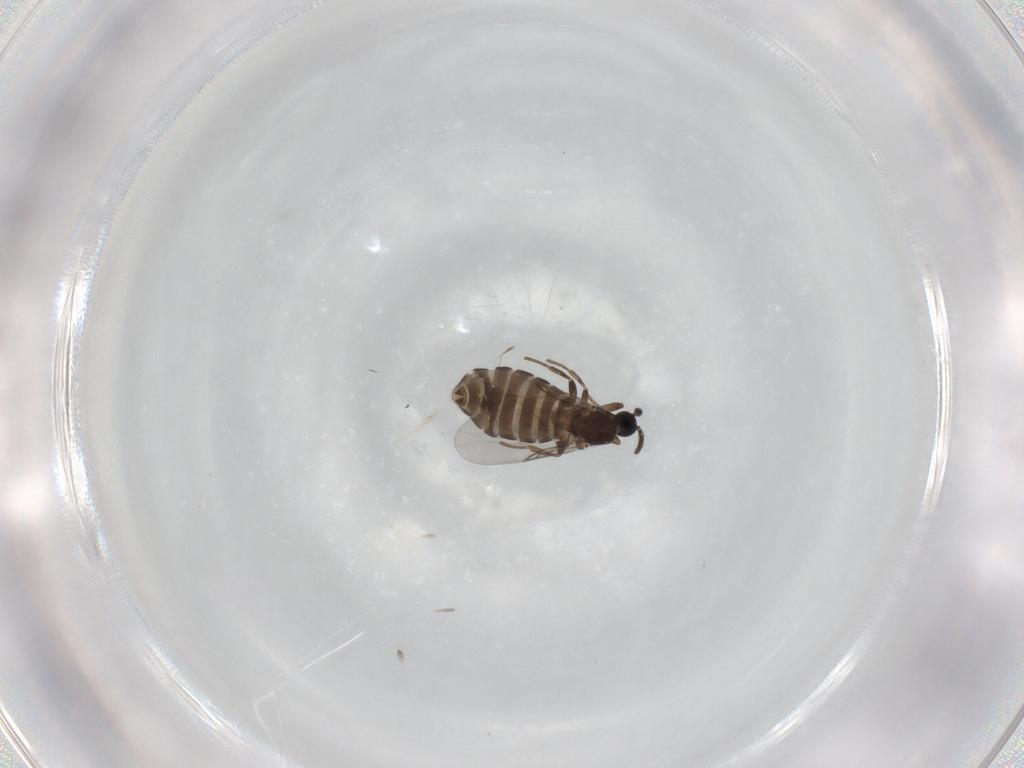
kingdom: Animalia
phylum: Arthropoda
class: Insecta
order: Diptera
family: Scatopsidae
